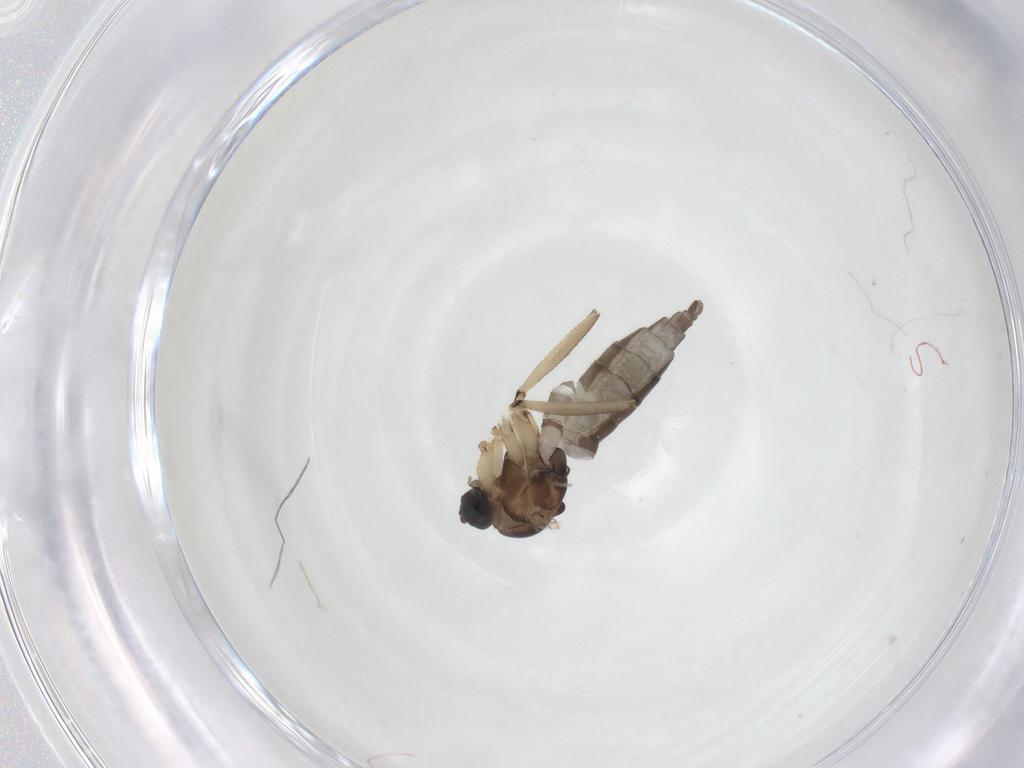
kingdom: Animalia
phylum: Arthropoda
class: Insecta
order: Diptera
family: Sciaridae
